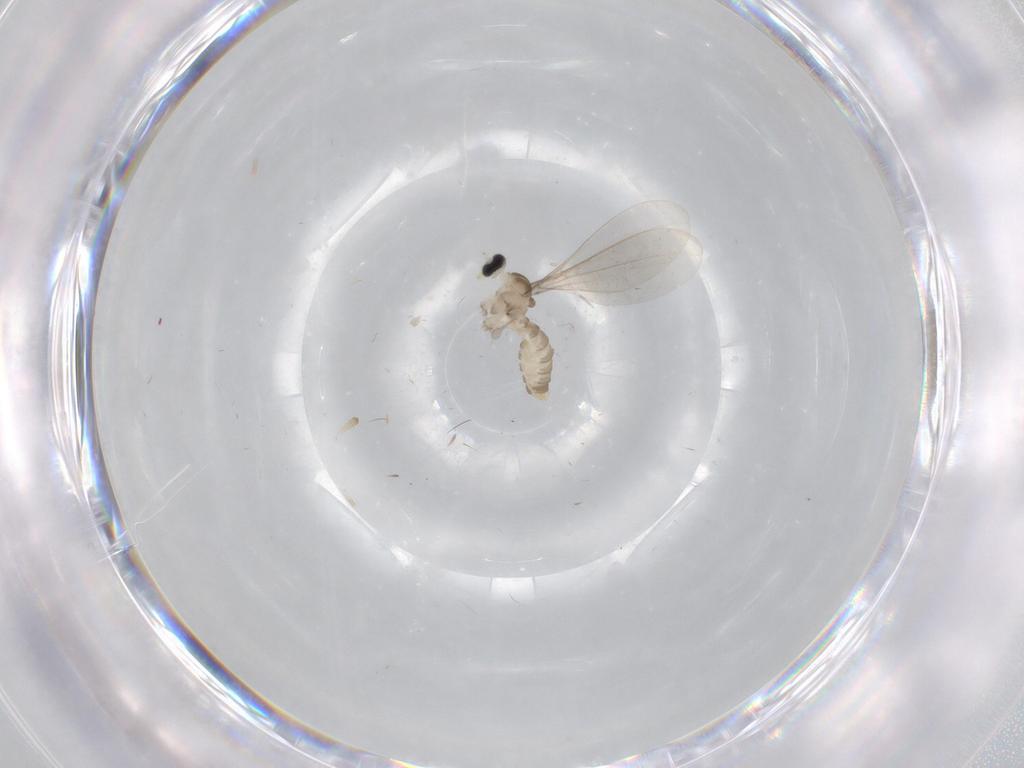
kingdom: Animalia
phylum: Arthropoda
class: Insecta
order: Diptera
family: Cecidomyiidae
